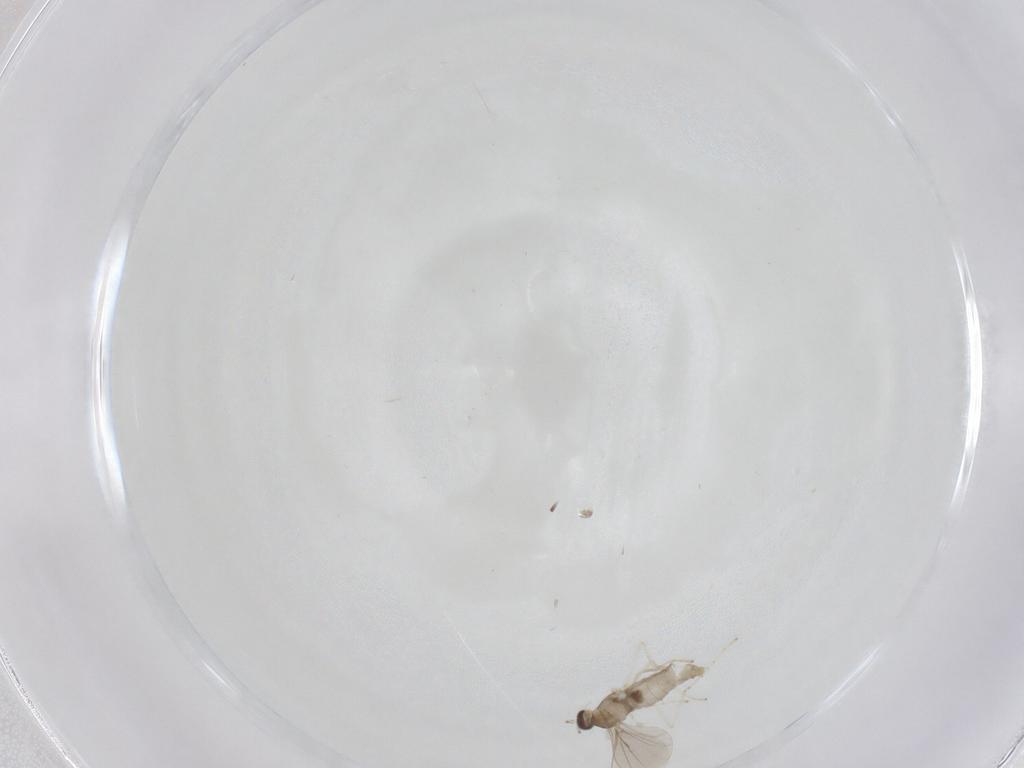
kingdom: Animalia
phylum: Arthropoda
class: Insecta
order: Diptera
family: Cecidomyiidae
